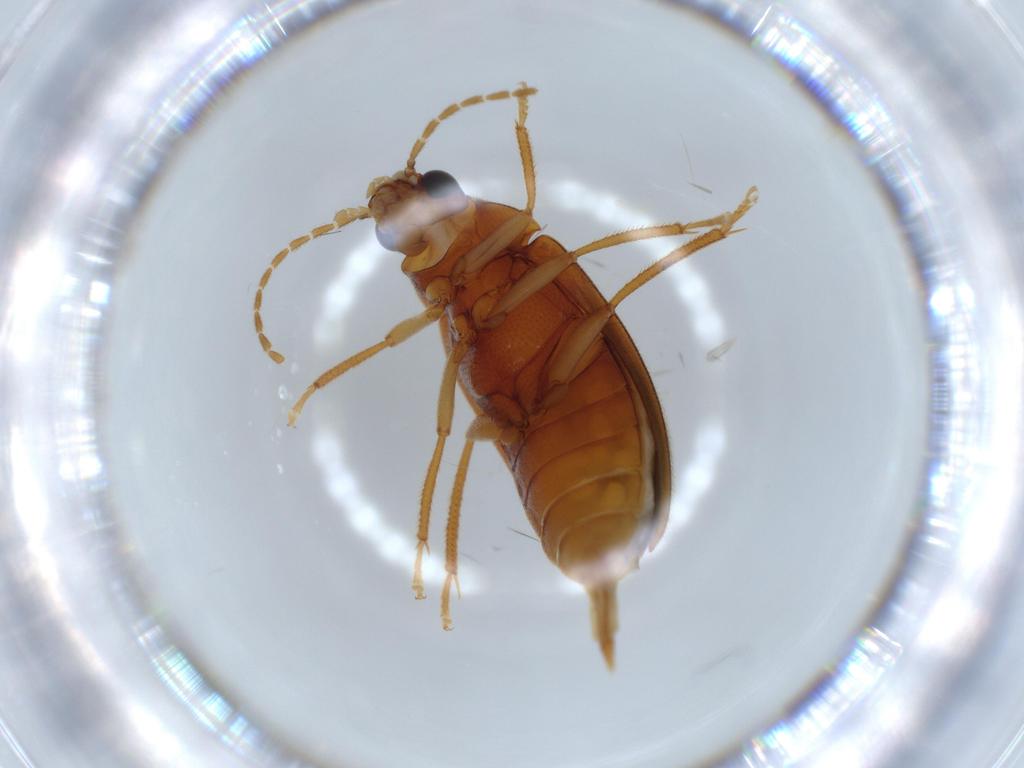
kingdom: Animalia
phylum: Arthropoda
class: Insecta
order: Coleoptera
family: Ptilodactylidae
